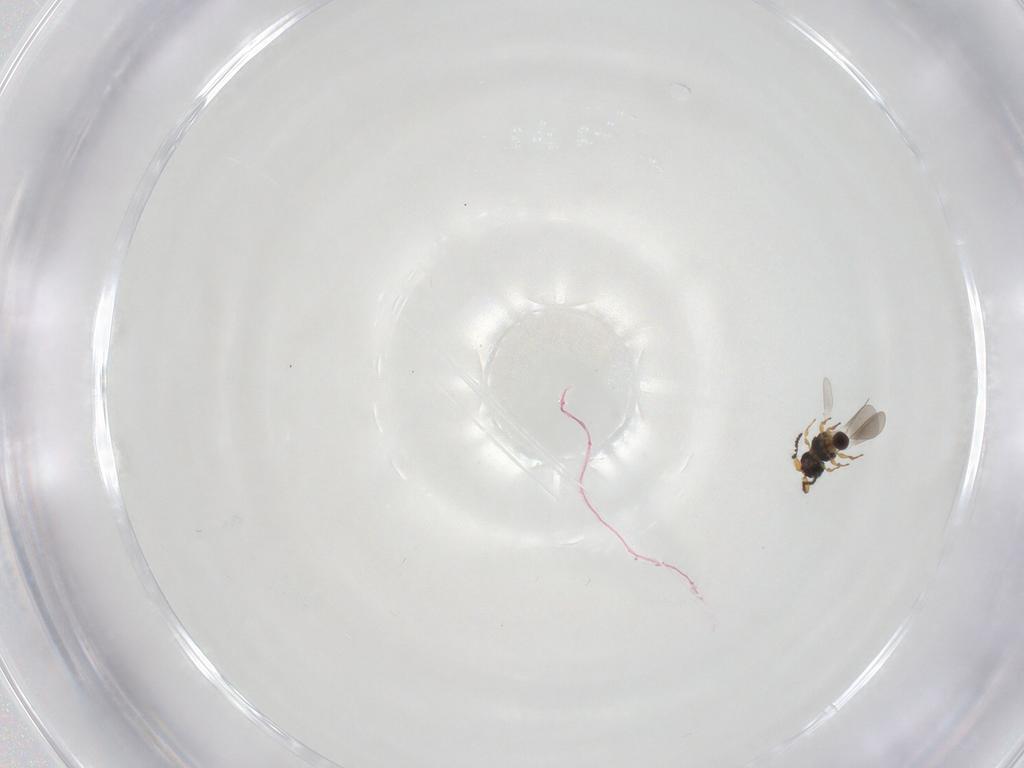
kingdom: Animalia
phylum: Arthropoda
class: Insecta
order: Hymenoptera
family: Platygastridae
